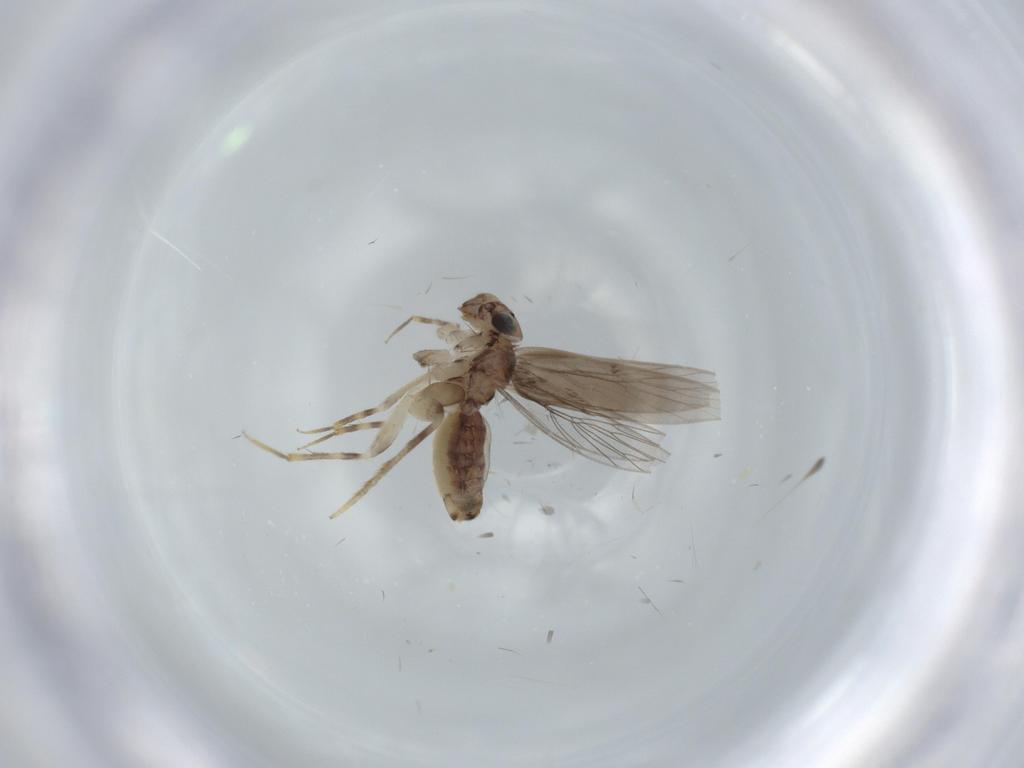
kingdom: Animalia
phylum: Arthropoda
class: Insecta
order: Psocodea
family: Lepidopsocidae
